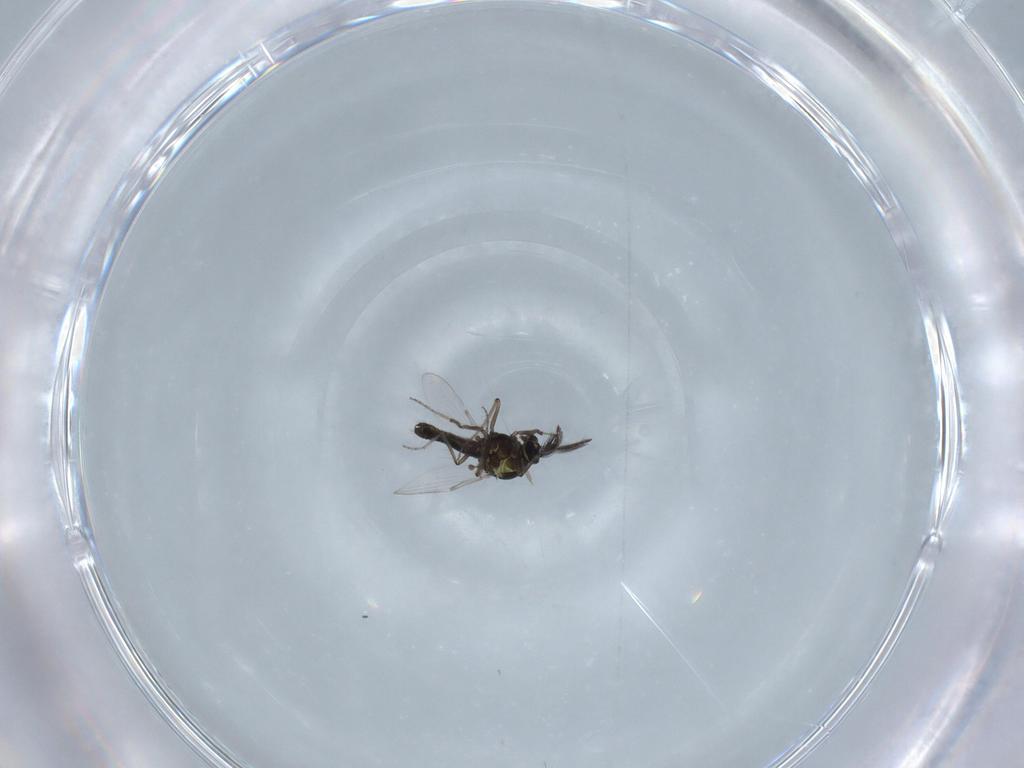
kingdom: Animalia
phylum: Arthropoda
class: Insecta
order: Diptera
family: Ceratopogonidae
